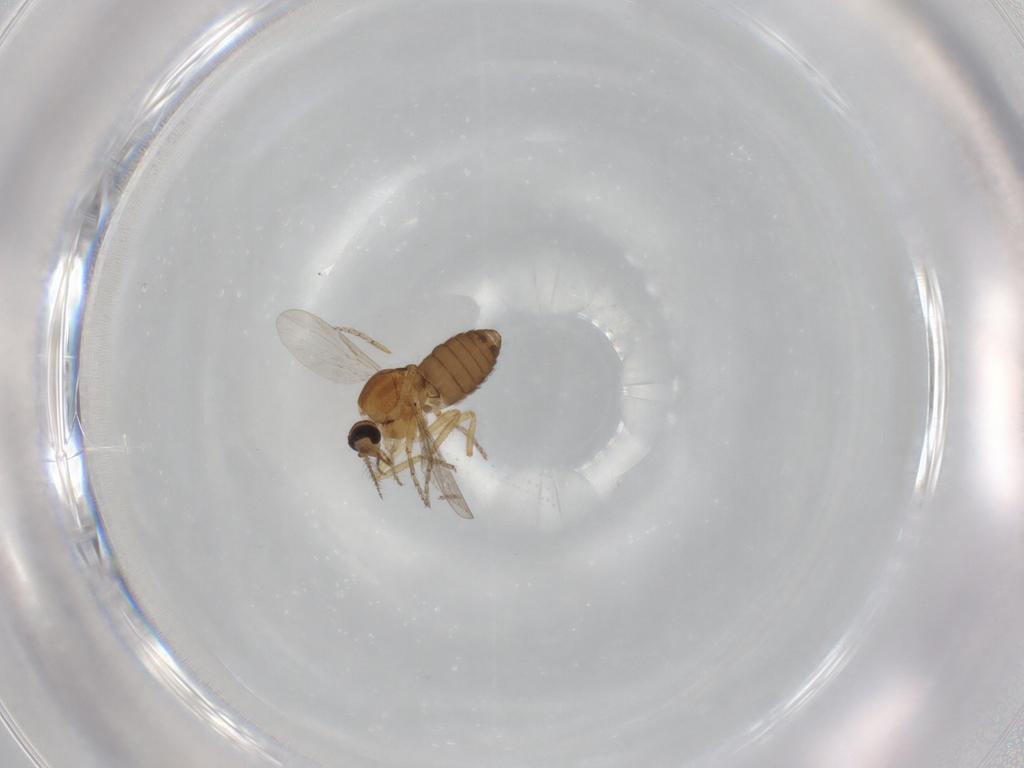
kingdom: Animalia
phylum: Arthropoda
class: Insecta
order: Diptera
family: Ceratopogonidae
